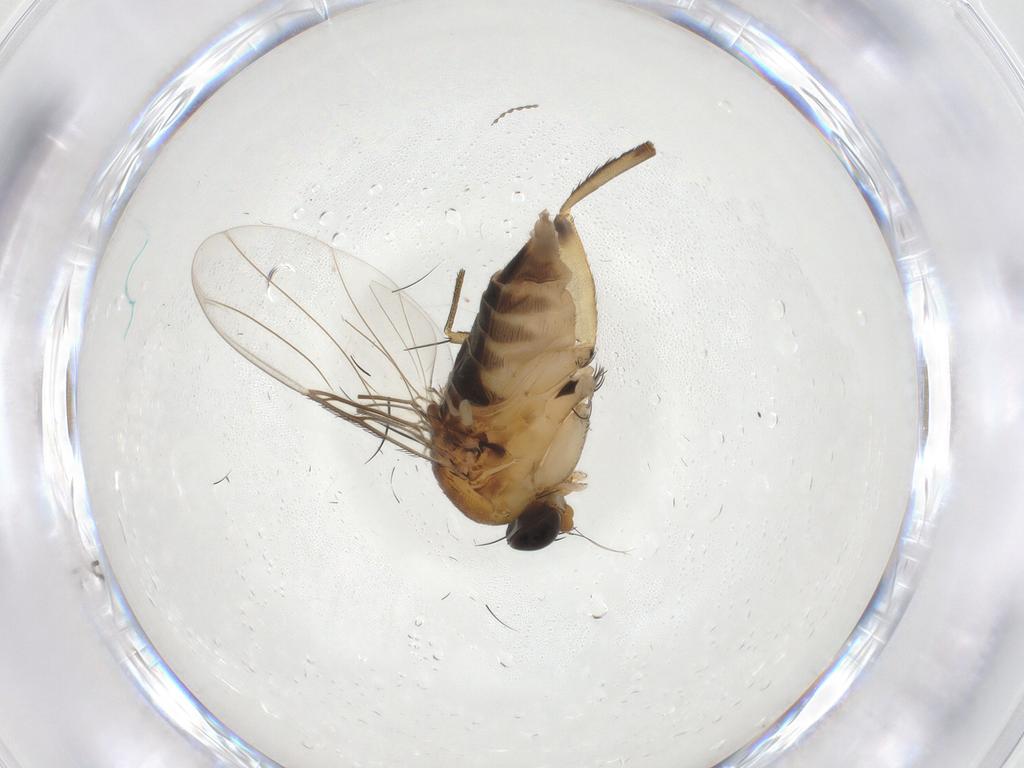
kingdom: Animalia
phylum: Arthropoda
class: Insecta
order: Diptera
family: Phoridae
